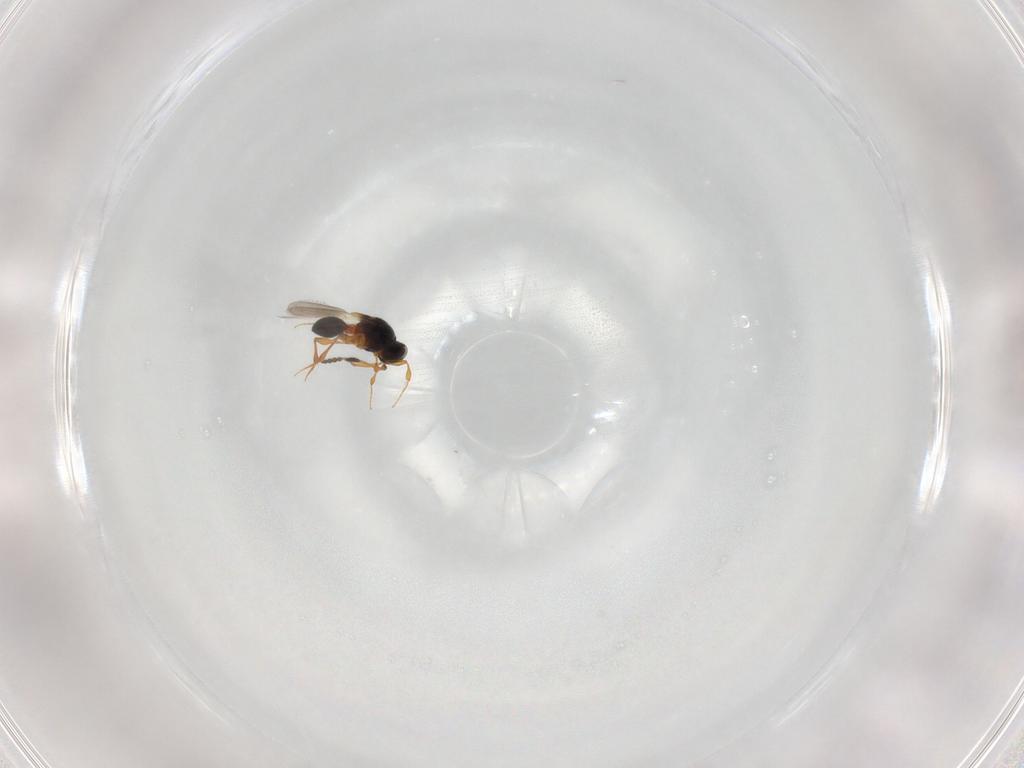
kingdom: Animalia
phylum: Arthropoda
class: Insecta
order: Hymenoptera
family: Platygastridae
